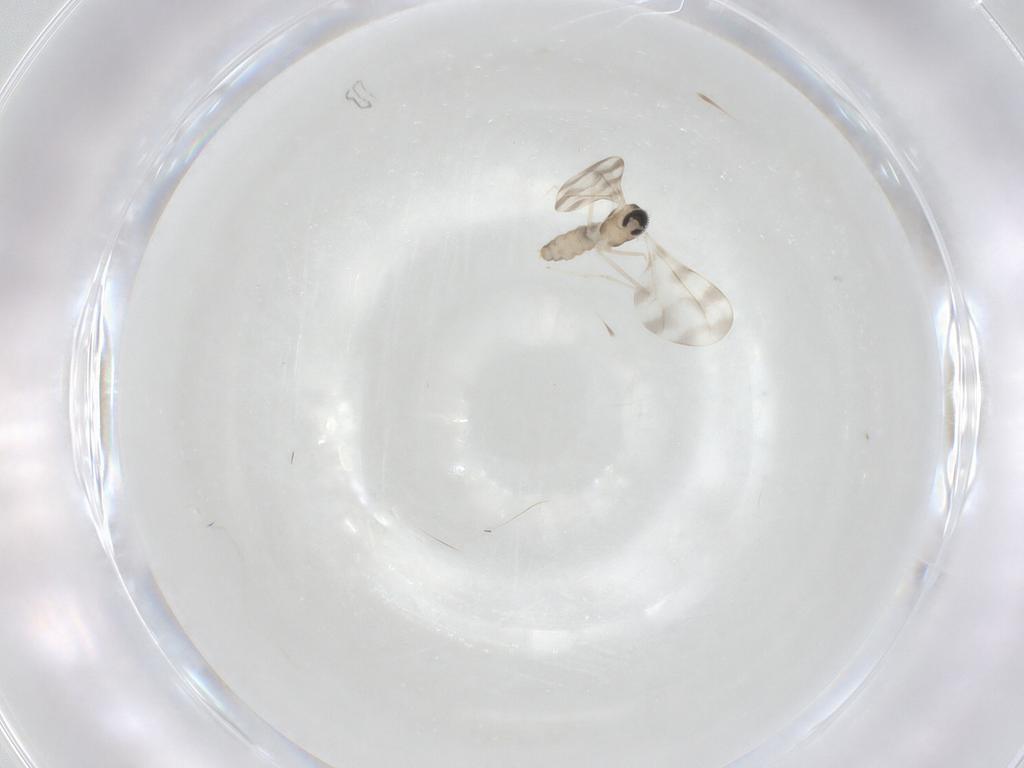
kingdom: Animalia
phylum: Arthropoda
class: Insecta
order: Diptera
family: Cecidomyiidae
